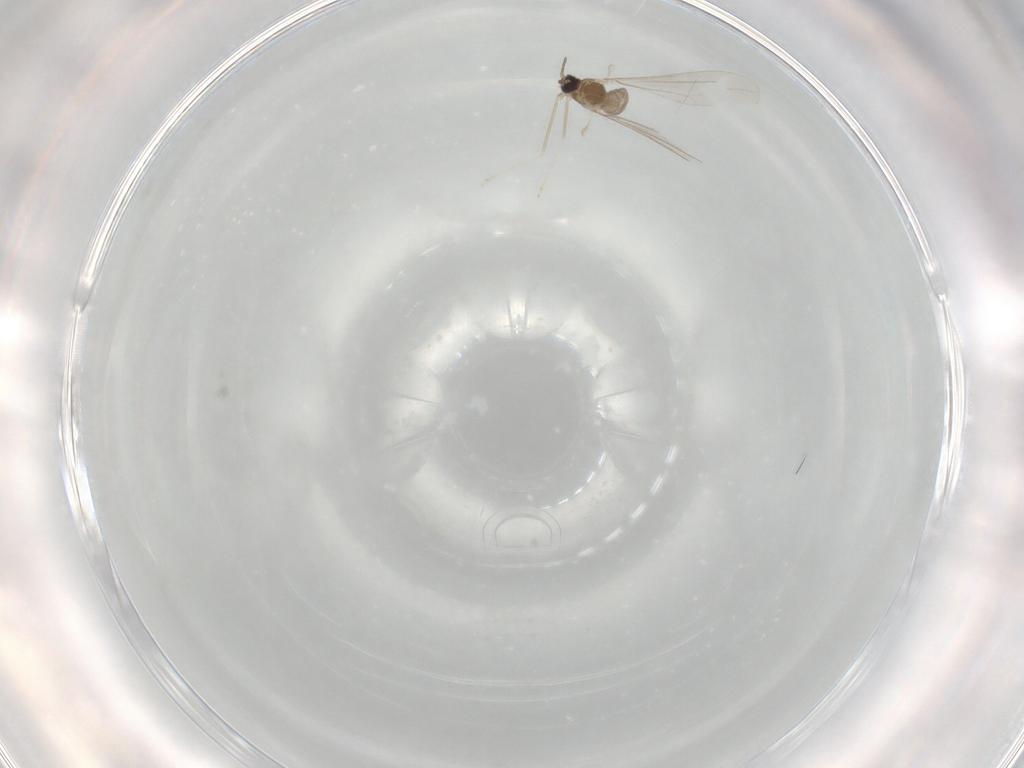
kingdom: Animalia
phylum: Arthropoda
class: Insecta
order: Diptera
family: Cecidomyiidae
